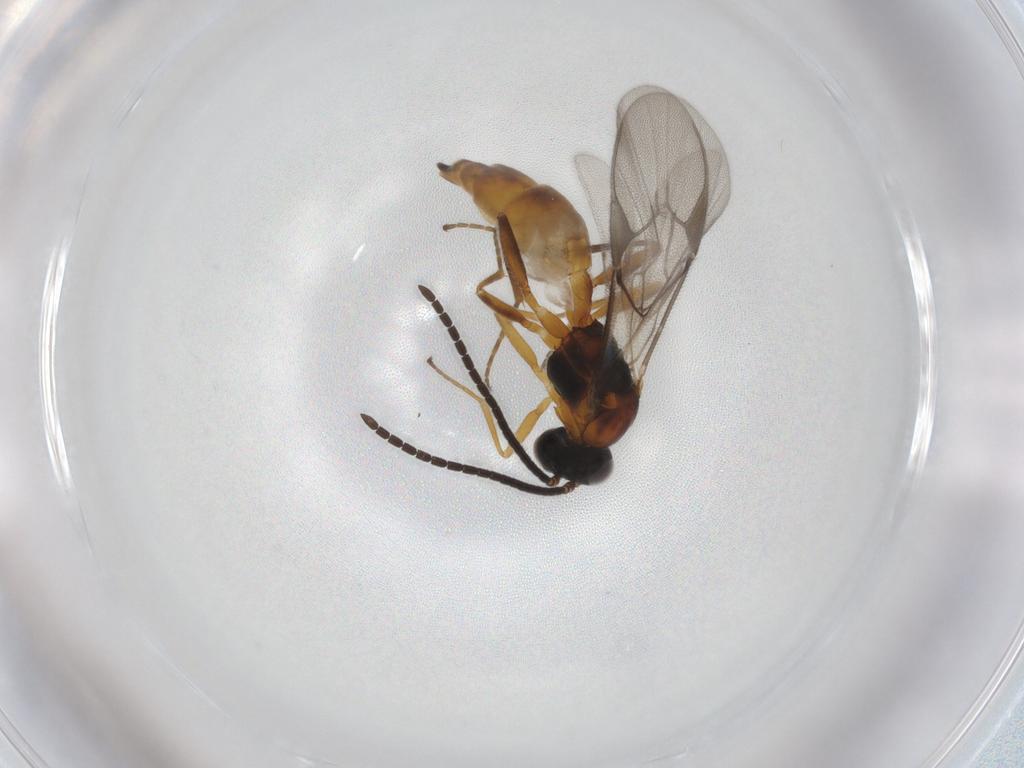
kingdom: Animalia
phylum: Arthropoda
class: Insecta
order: Hymenoptera
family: Braconidae
